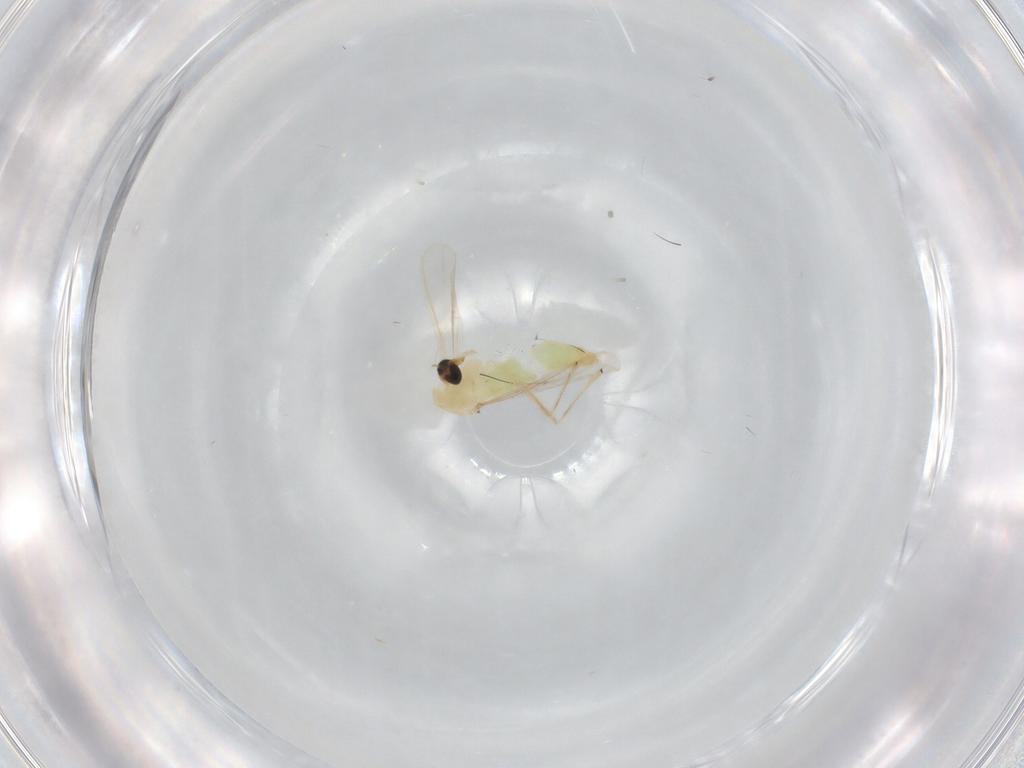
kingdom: Animalia
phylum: Arthropoda
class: Insecta
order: Diptera
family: Chironomidae
